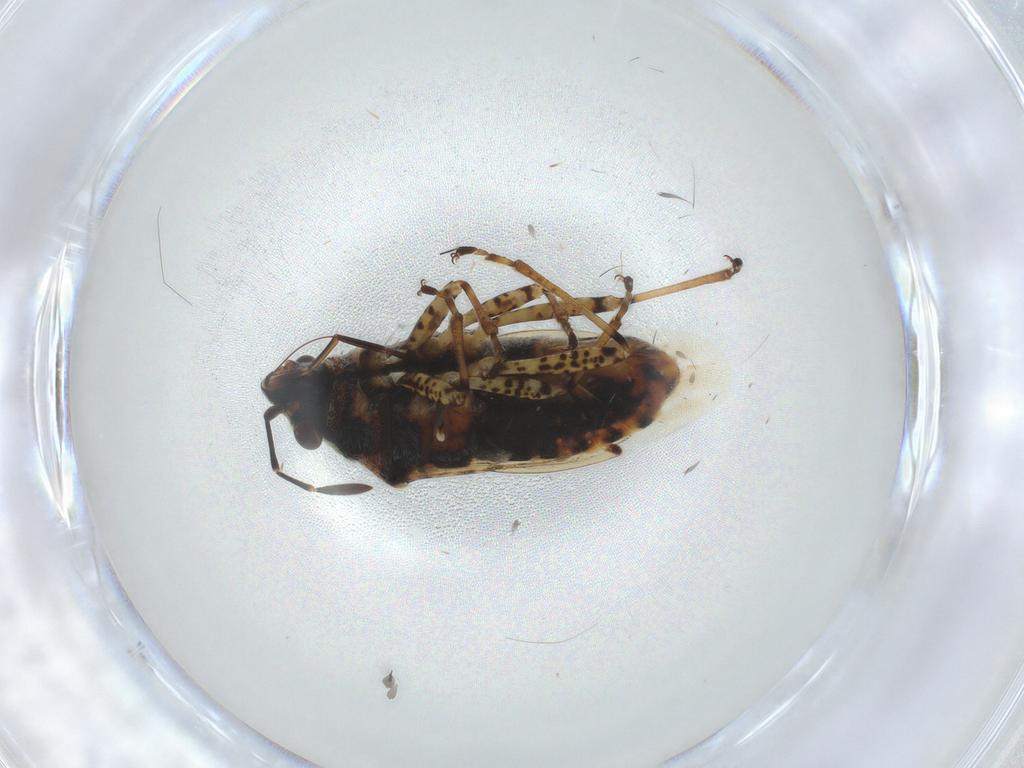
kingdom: Animalia
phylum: Arthropoda
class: Insecta
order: Hemiptera
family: Lygaeidae
